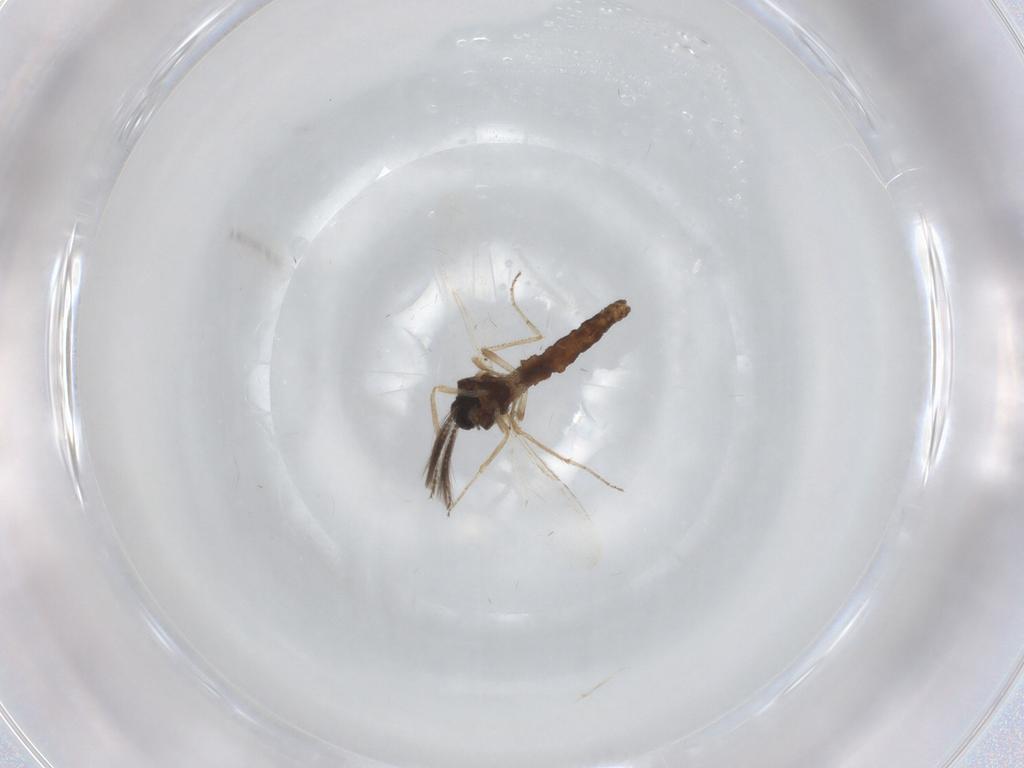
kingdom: Animalia
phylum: Arthropoda
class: Insecta
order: Diptera
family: Ceratopogonidae
